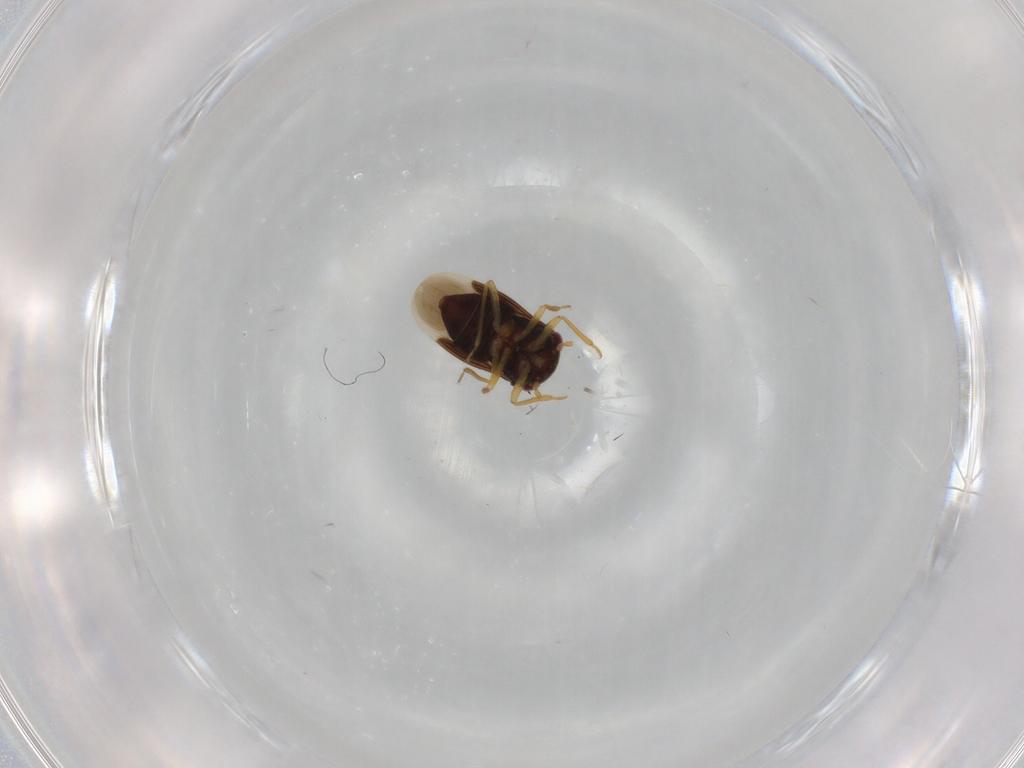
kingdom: Animalia
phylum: Arthropoda
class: Insecta
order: Hemiptera
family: Schizopteridae
